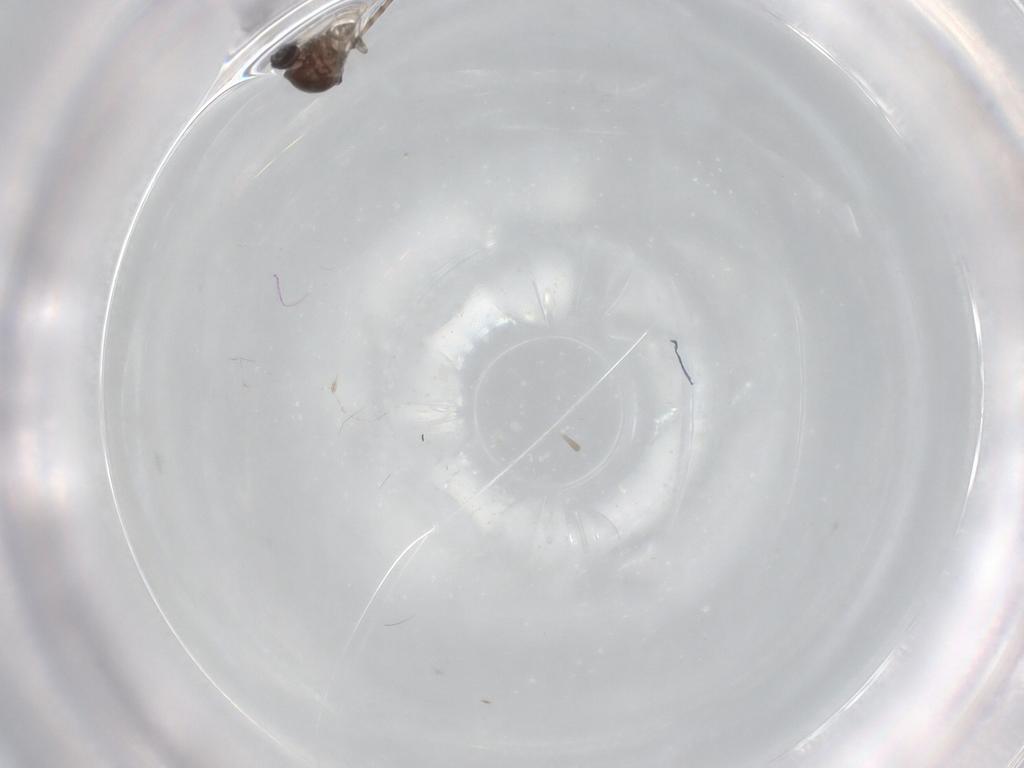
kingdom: Animalia
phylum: Arthropoda
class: Insecta
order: Diptera
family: Ceratopogonidae
